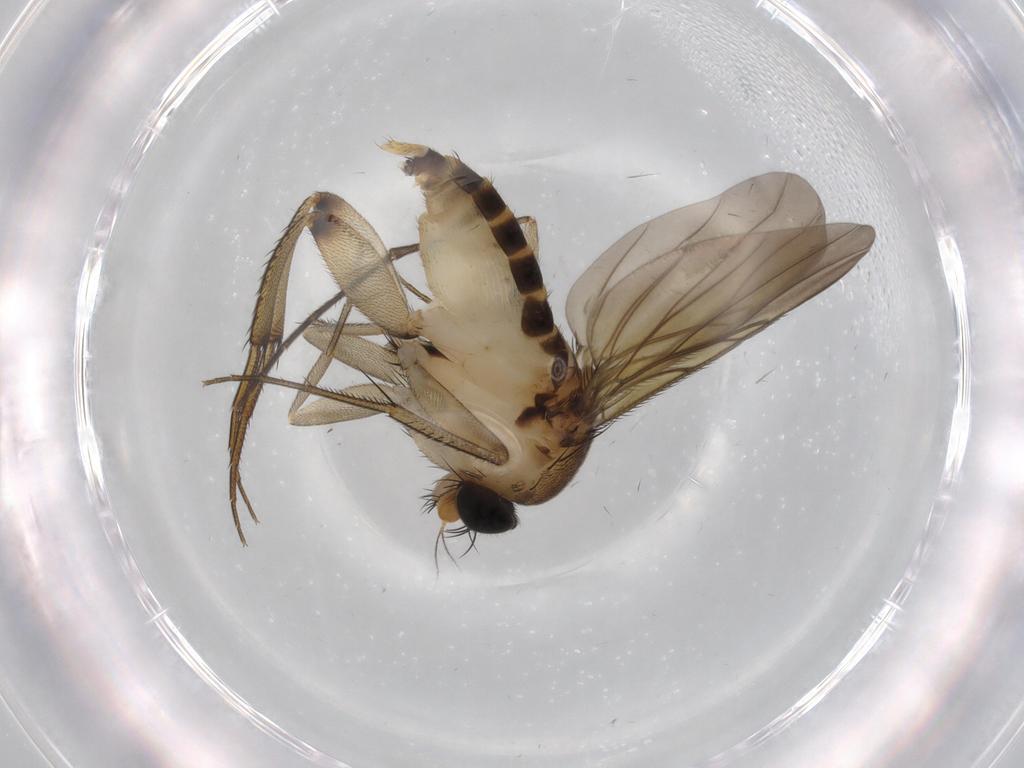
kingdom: Animalia
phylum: Arthropoda
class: Insecta
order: Diptera
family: Sciaridae
